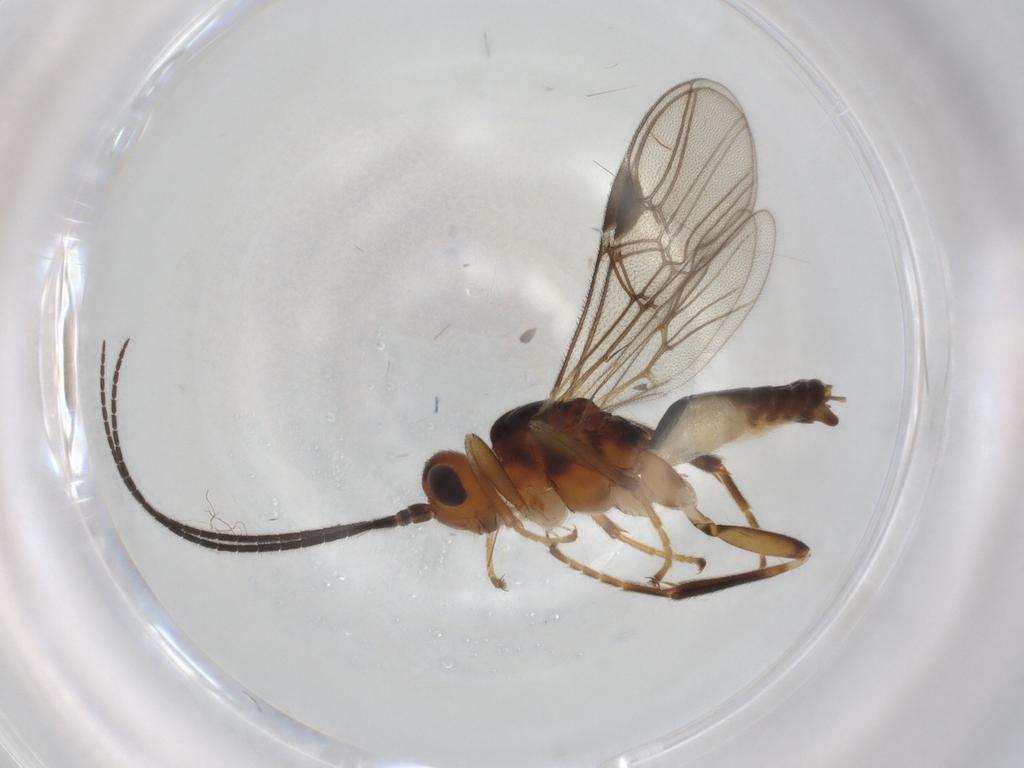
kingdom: Animalia
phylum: Arthropoda
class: Insecta
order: Hymenoptera
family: Braconidae
